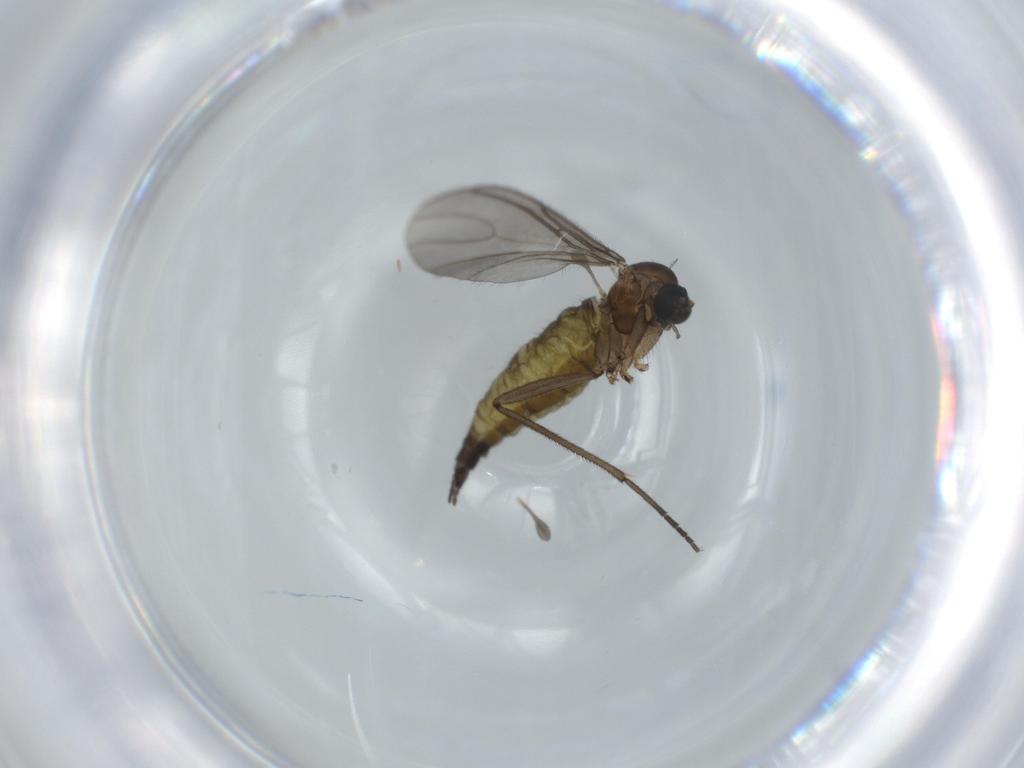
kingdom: Animalia
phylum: Arthropoda
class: Insecta
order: Diptera
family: Sciaridae
